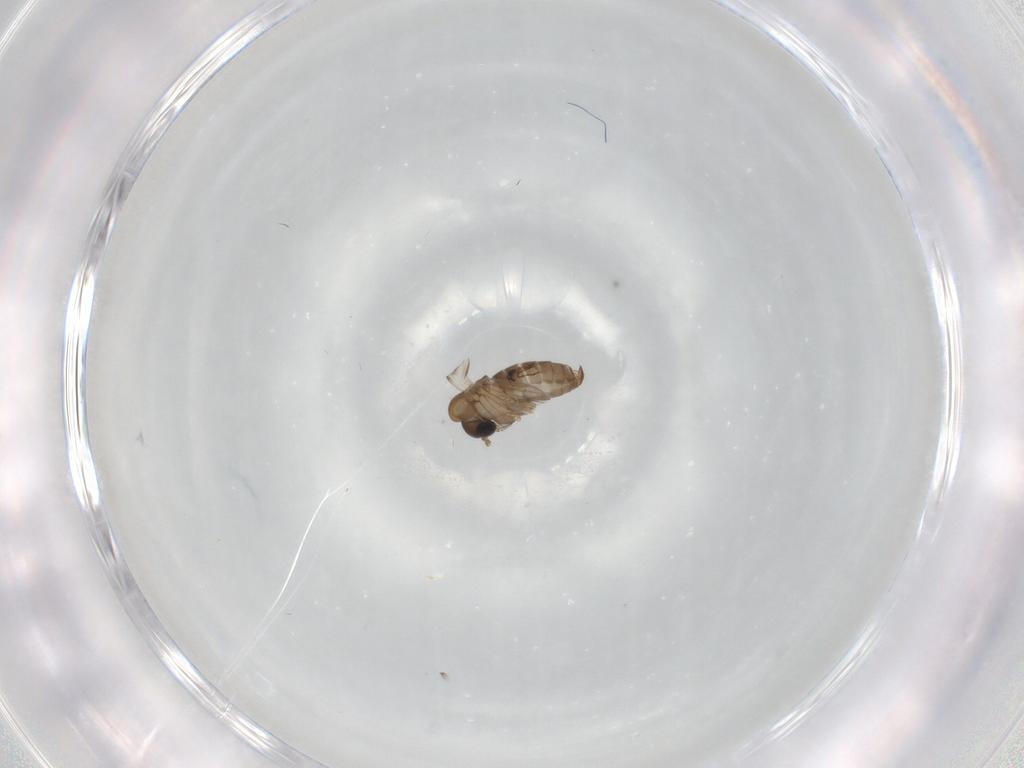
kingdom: Animalia
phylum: Arthropoda
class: Insecta
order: Diptera
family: Psychodidae
